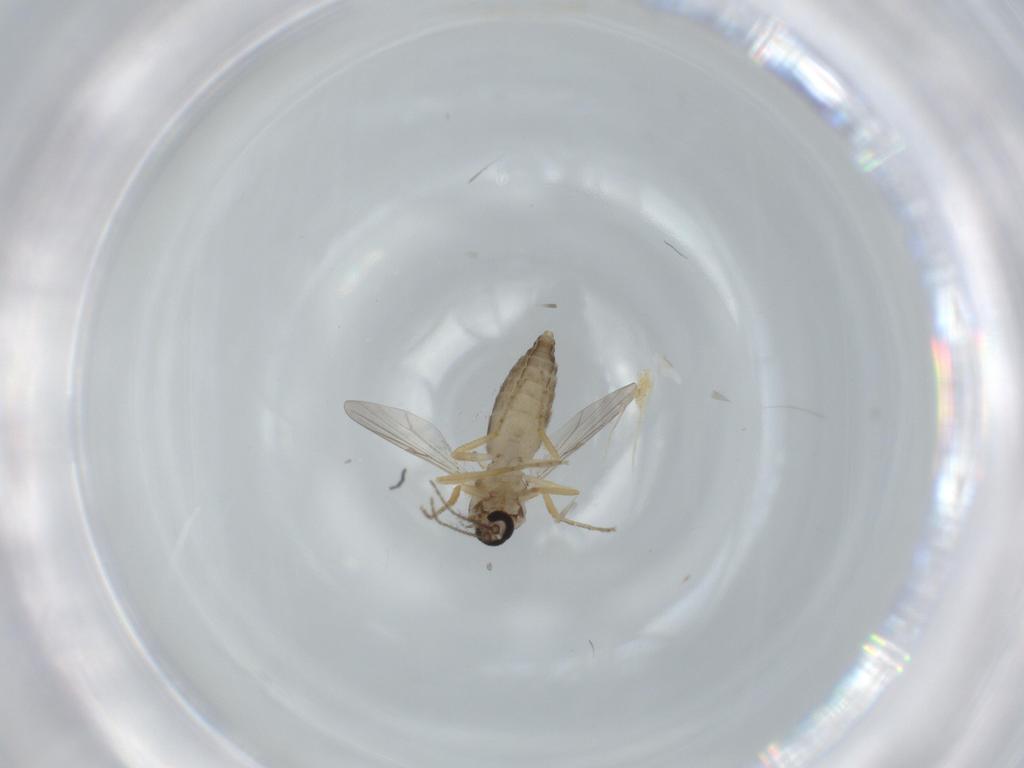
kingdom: Animalia
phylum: Arthropoda
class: Insecta
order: Diptera
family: Ceratopogonidae
